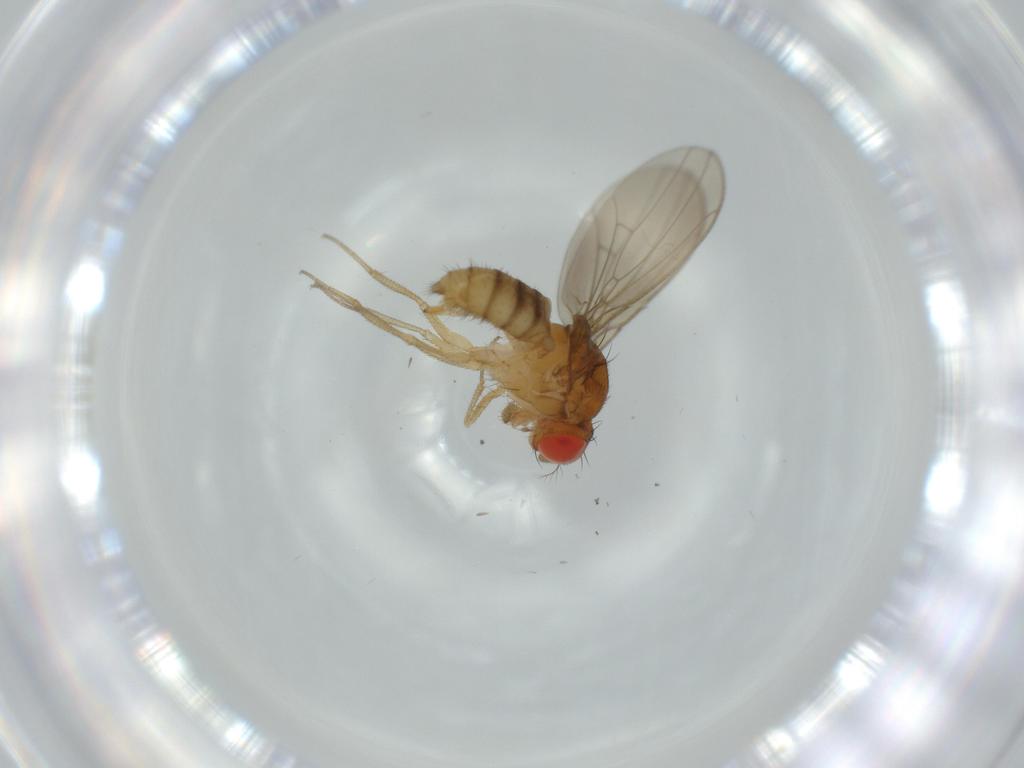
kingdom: Animalia
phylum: Arthropoda
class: Insecta
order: Diptera
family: Drosophilidae
